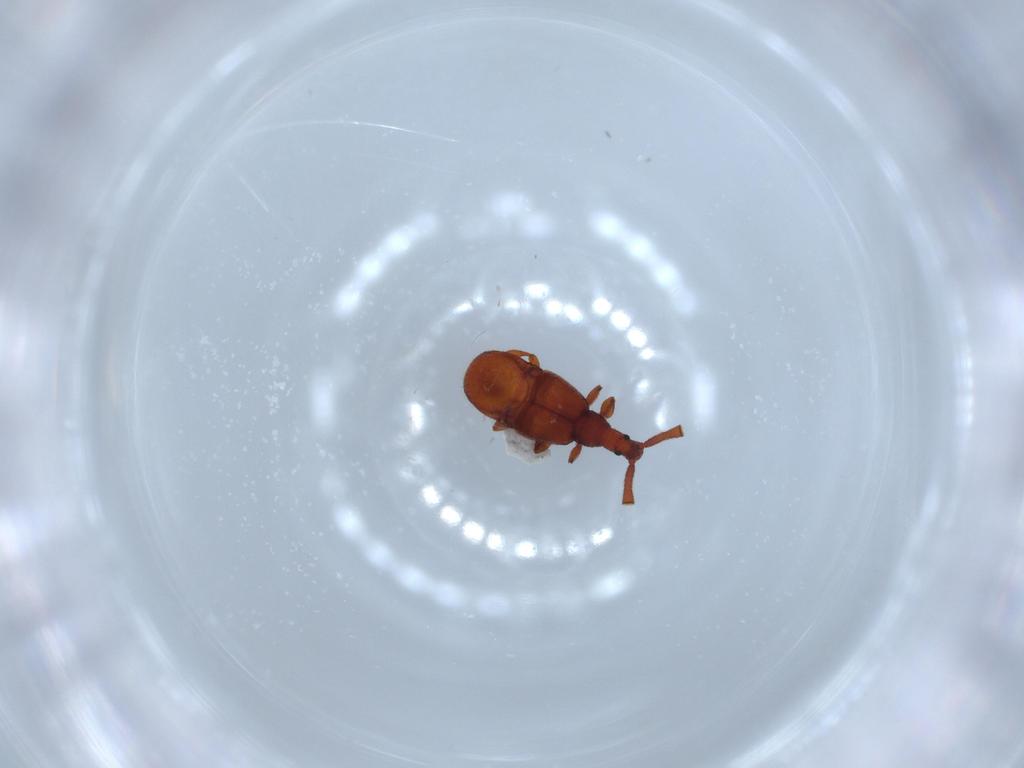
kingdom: Animalia
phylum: Arthropoda
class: Insecta
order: Coleoptera
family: Staphylinidae
